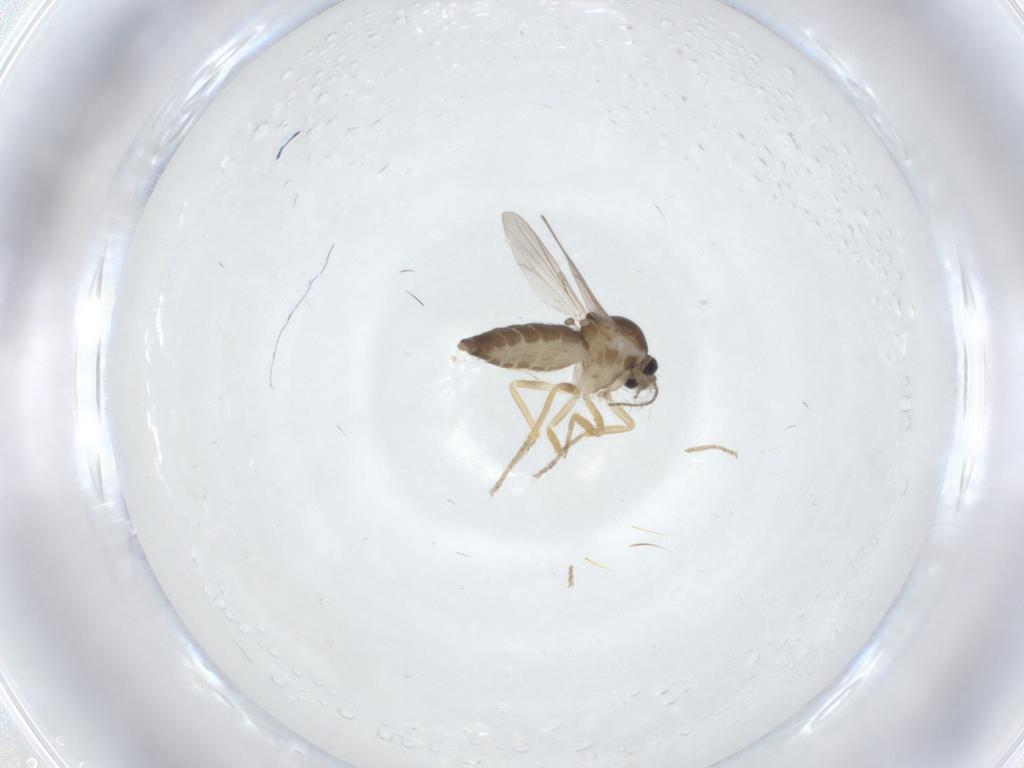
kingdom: Animalia
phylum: Arthropoda
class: Insecta
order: Diptera
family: Ceratopogonidae
